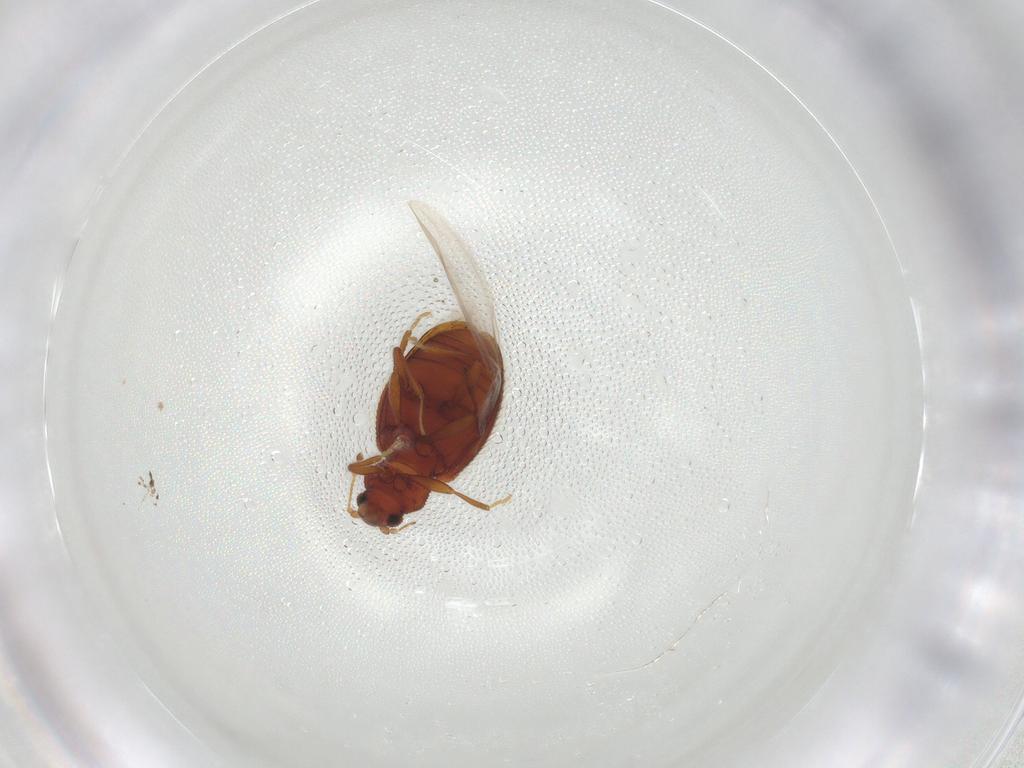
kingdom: Animalia
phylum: Arthropoda
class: Insecta
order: Coleoptera
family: Latridiidae
